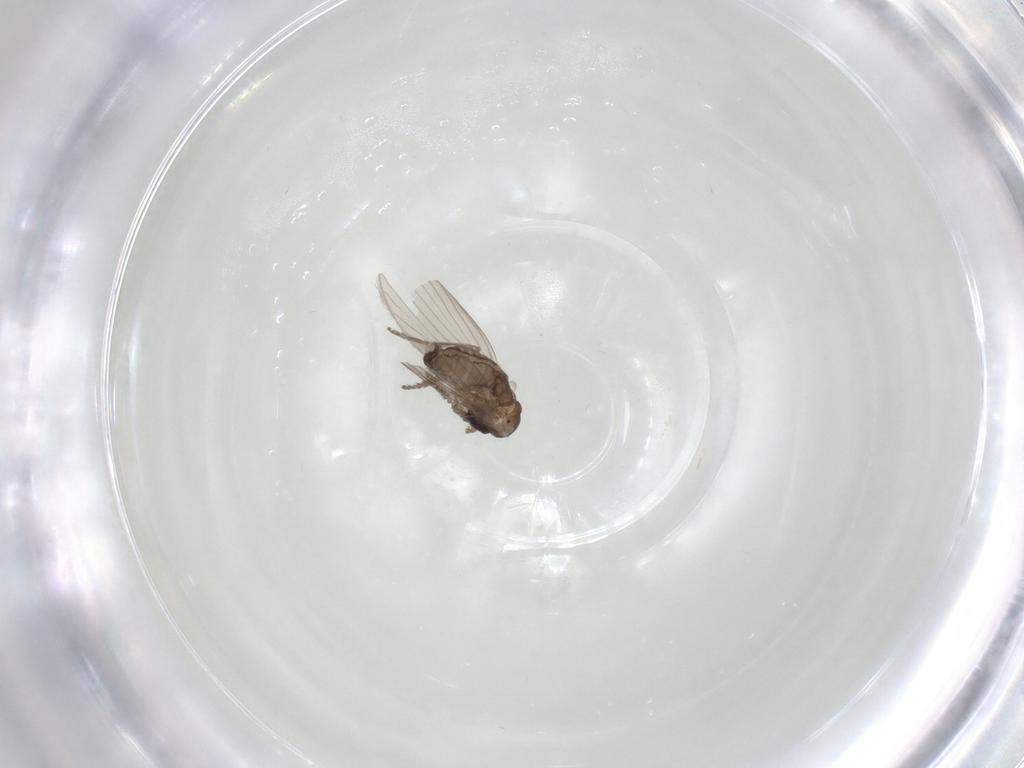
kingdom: Animalia
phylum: Arthropoda
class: Insecta
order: Diptera
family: Psychodidae
